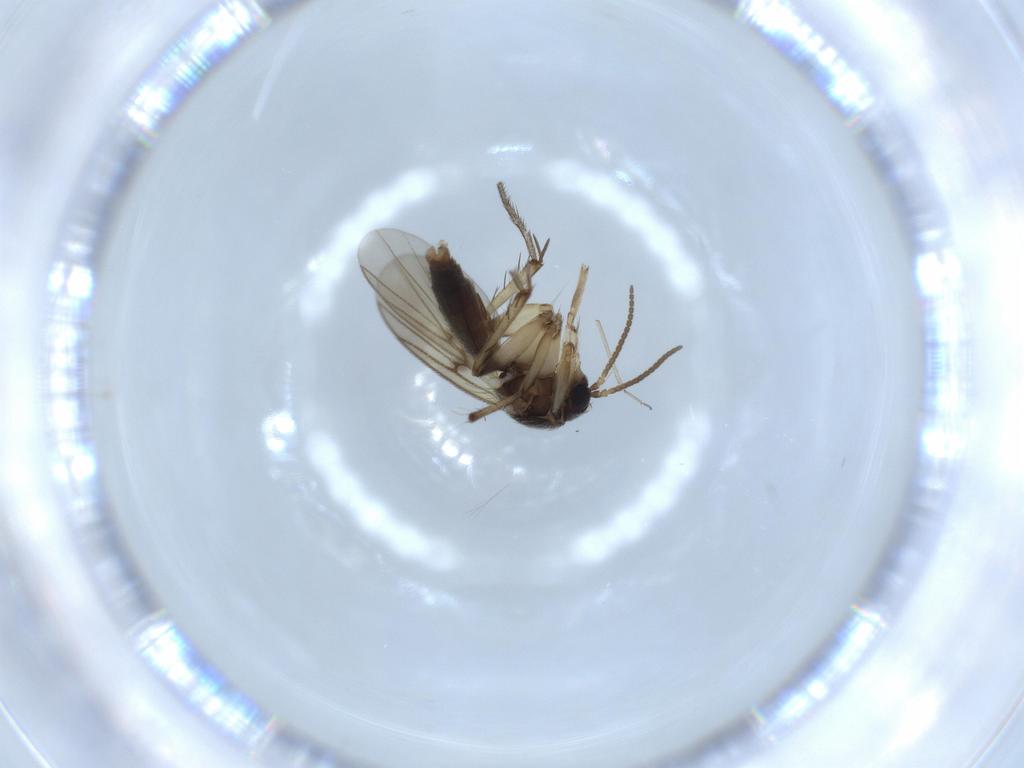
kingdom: Animalia
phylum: Arthropoda
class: Insecta
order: Diptera
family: Mycetophilidae
